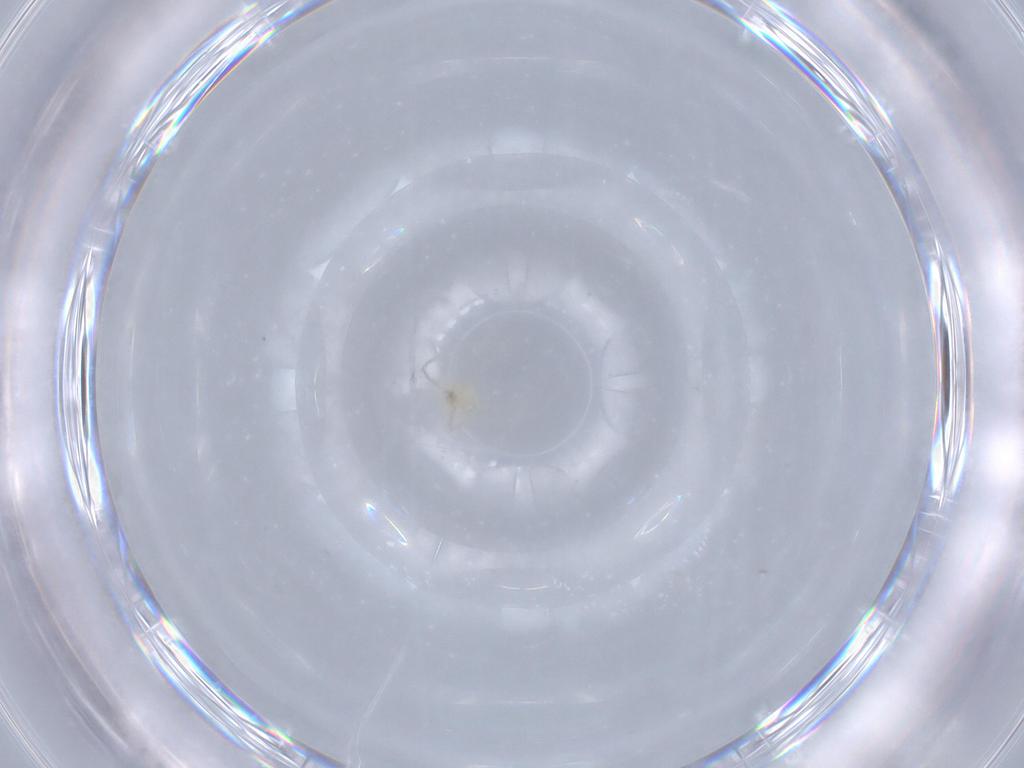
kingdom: Animalia
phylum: Arthropoda
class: Arachnida
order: Trombidiformes
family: Erythraeidae
